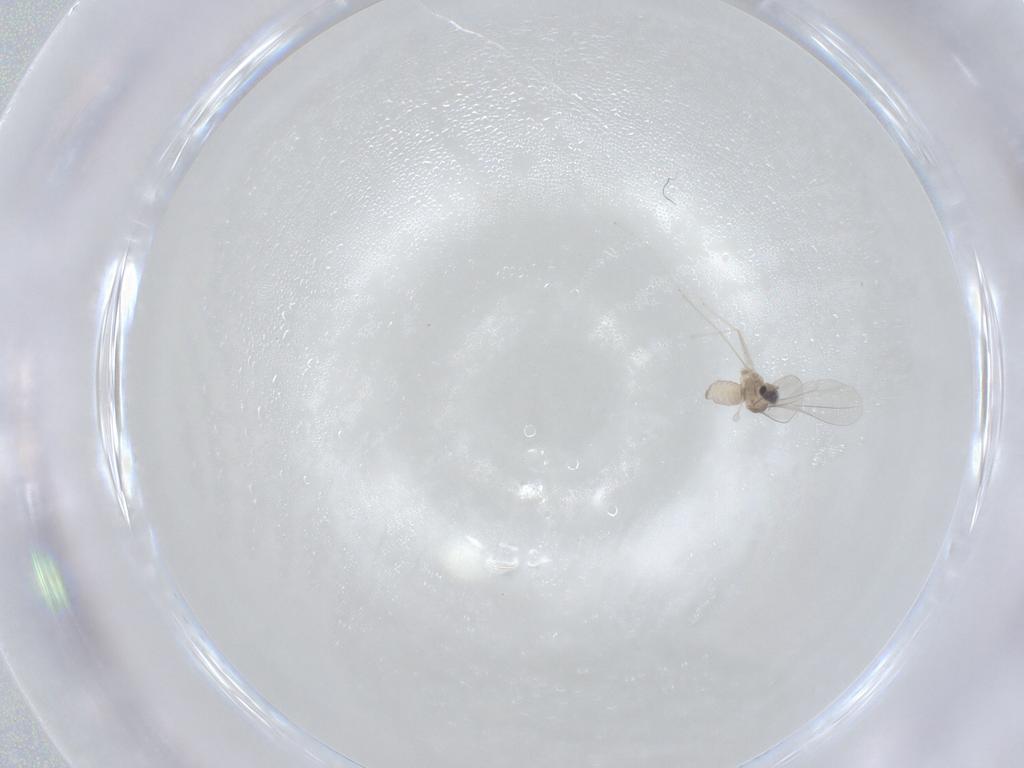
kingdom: Animalia
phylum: Arthropoda
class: Insecta
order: Diptera
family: Cecidomyiidae
